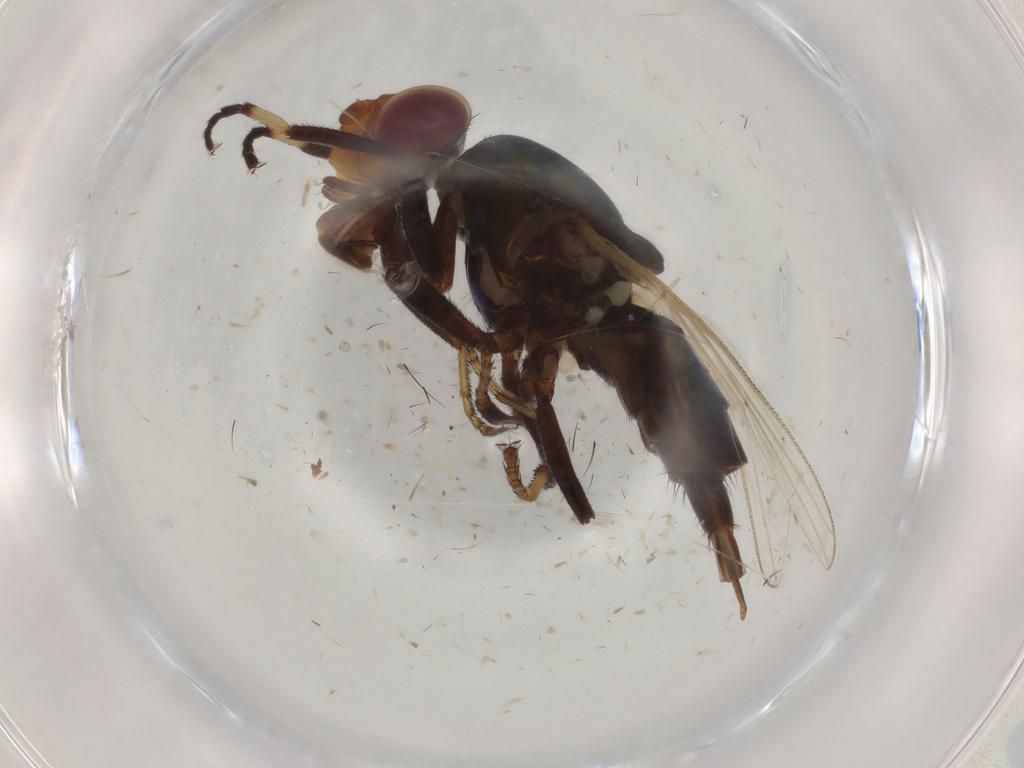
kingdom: Animalia
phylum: Arthropoda
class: Insecta
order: Diptera
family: Ulidiidae
